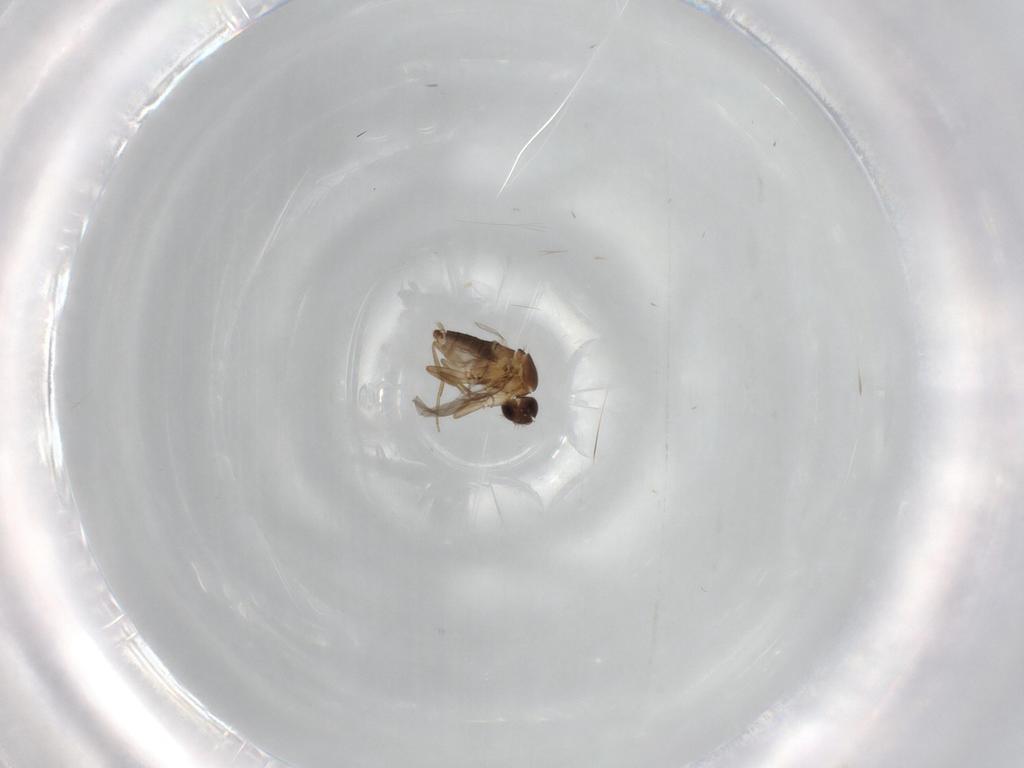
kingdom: Animalia
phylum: Arthropoda
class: Insecta
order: Diptera
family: Phoridae
